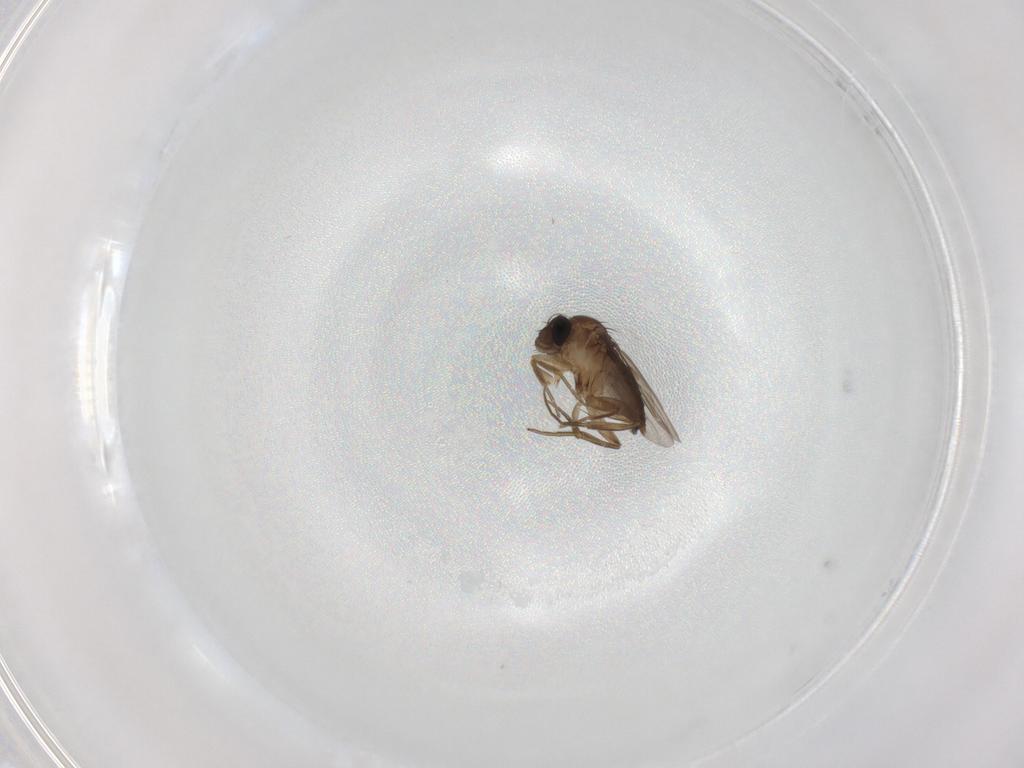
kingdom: Animalia
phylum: Arthropoda
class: Insecta
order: Diptera
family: Phoridae
